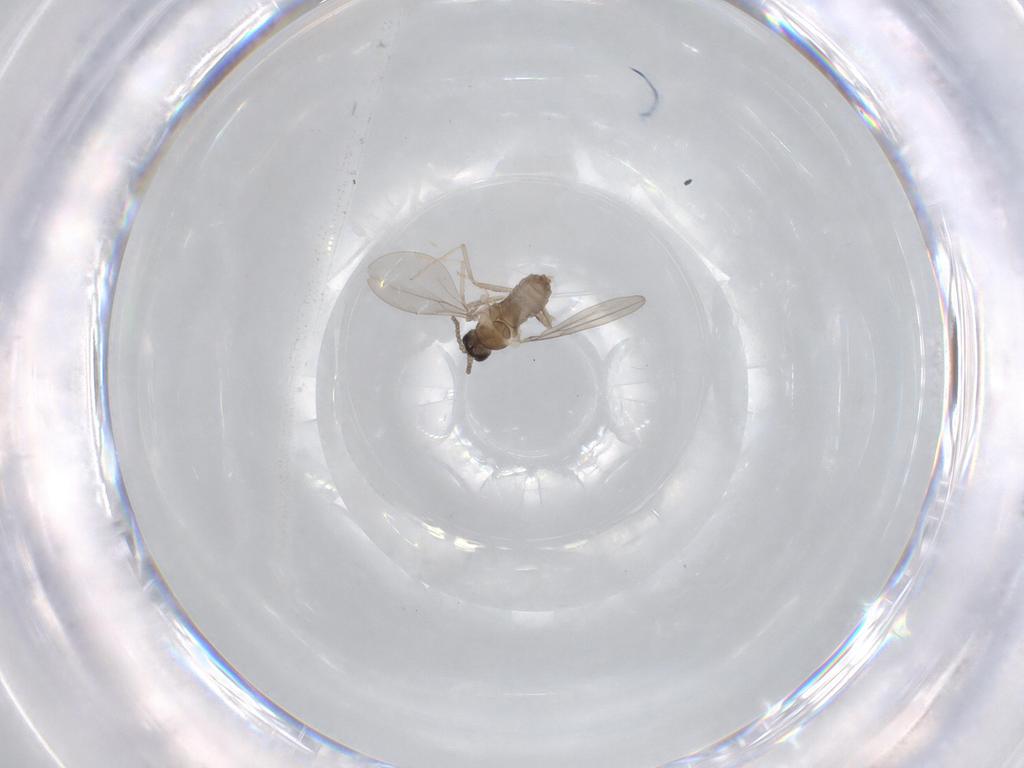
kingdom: Animalia
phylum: Arthropoda
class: Insecta
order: Diptera
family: Cecidomyiidae
